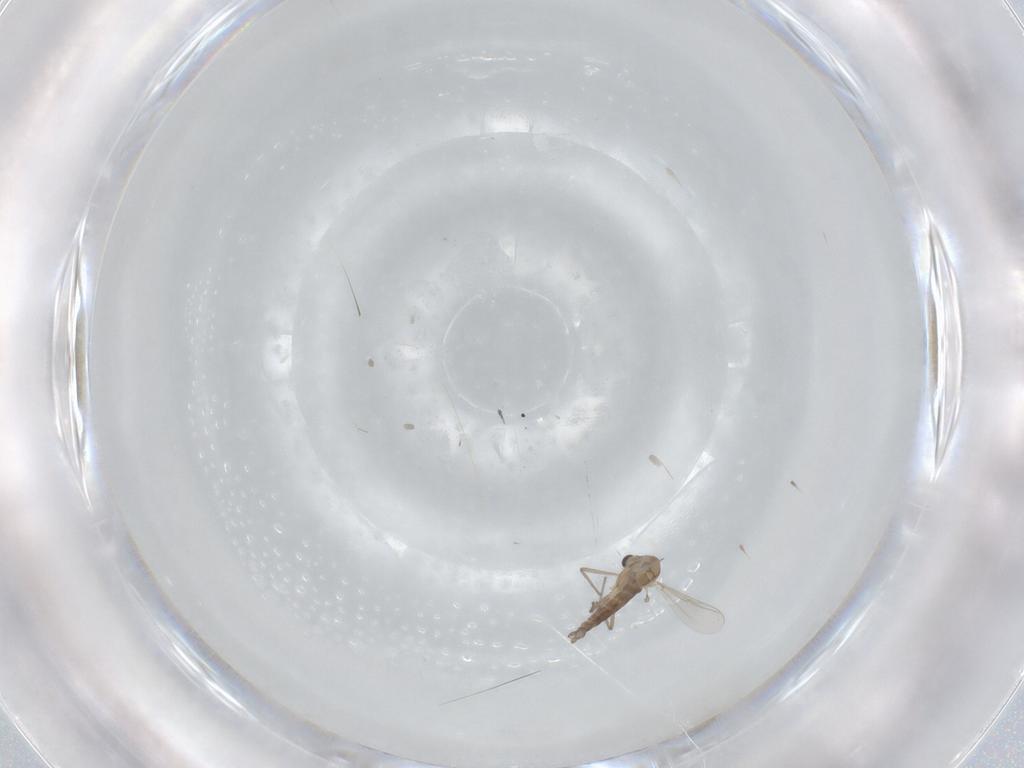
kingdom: Animalia
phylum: Arthropoda
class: Insecta
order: Diptera
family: Chironomidae
